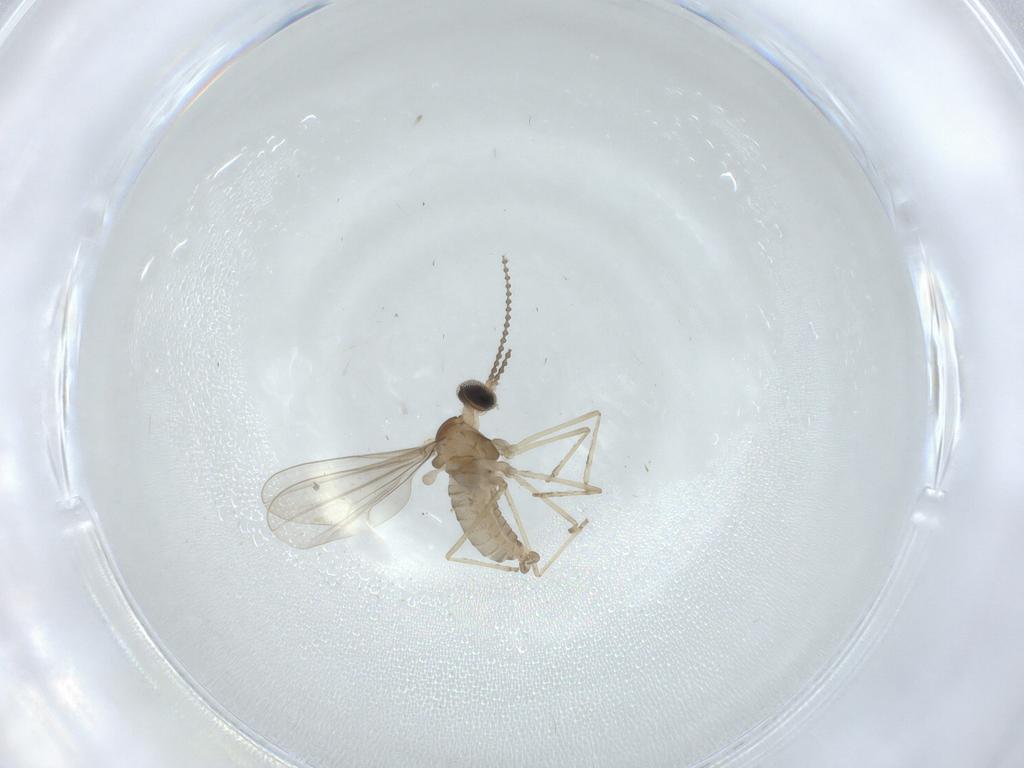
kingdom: Animalia
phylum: Arthropoda
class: Insecta
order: Diptera
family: Cecidomyiidae
